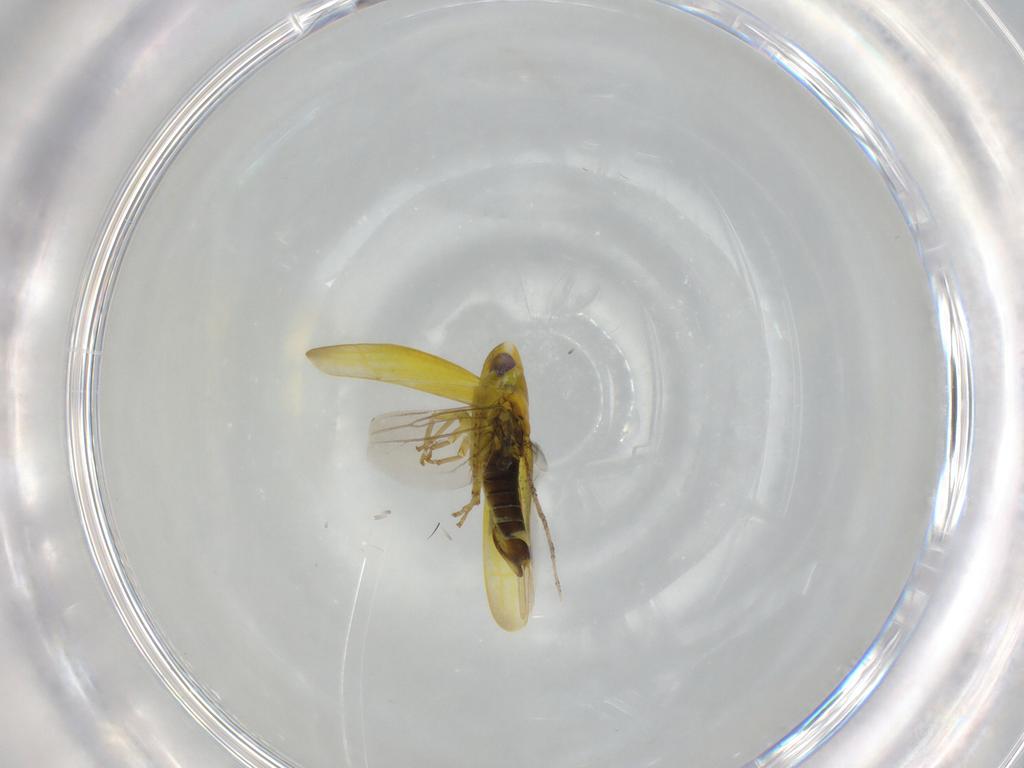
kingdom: Animalia
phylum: Arthropoda
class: Insecta
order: Hemiptera
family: Cicadellidae
